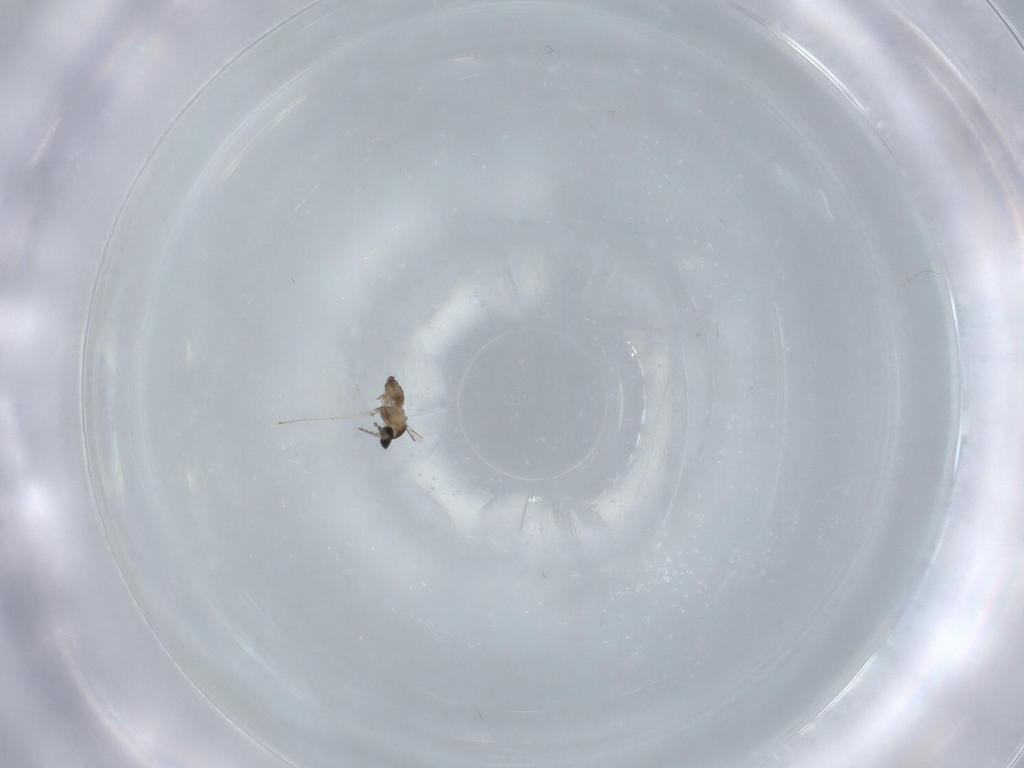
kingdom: Animalia
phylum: Arthropoda
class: Insecta
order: Diptera
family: Cecidomyiidae
